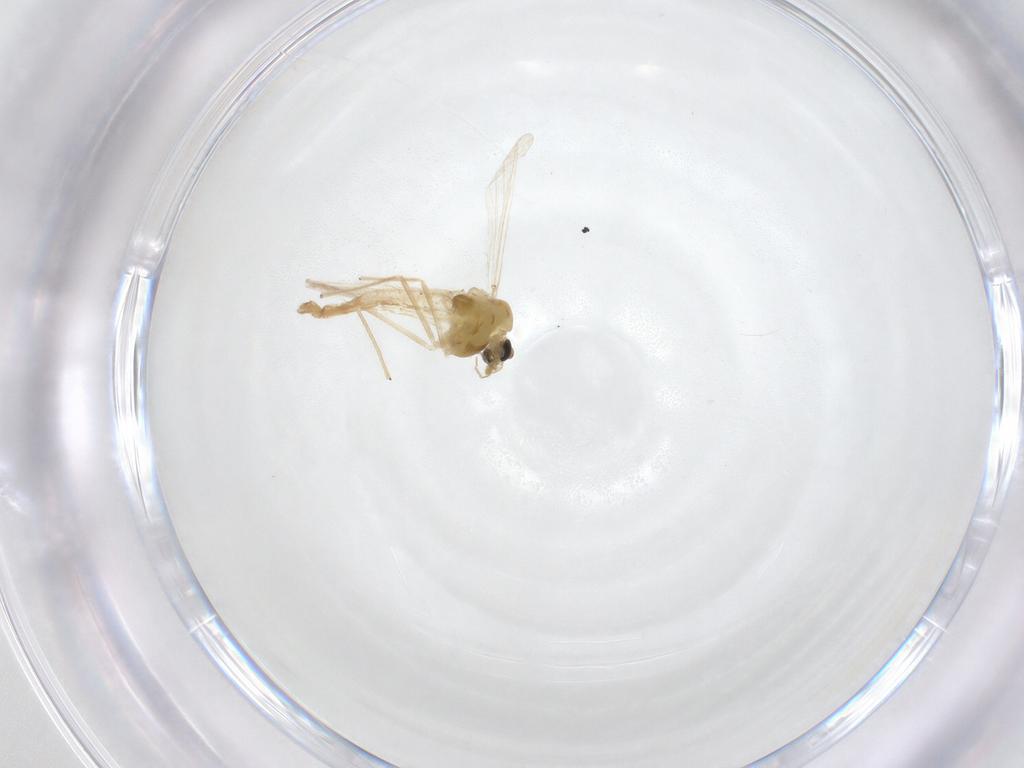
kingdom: Animalia
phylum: Arthropoda
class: Insecta
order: Diptera
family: Chironomidae
